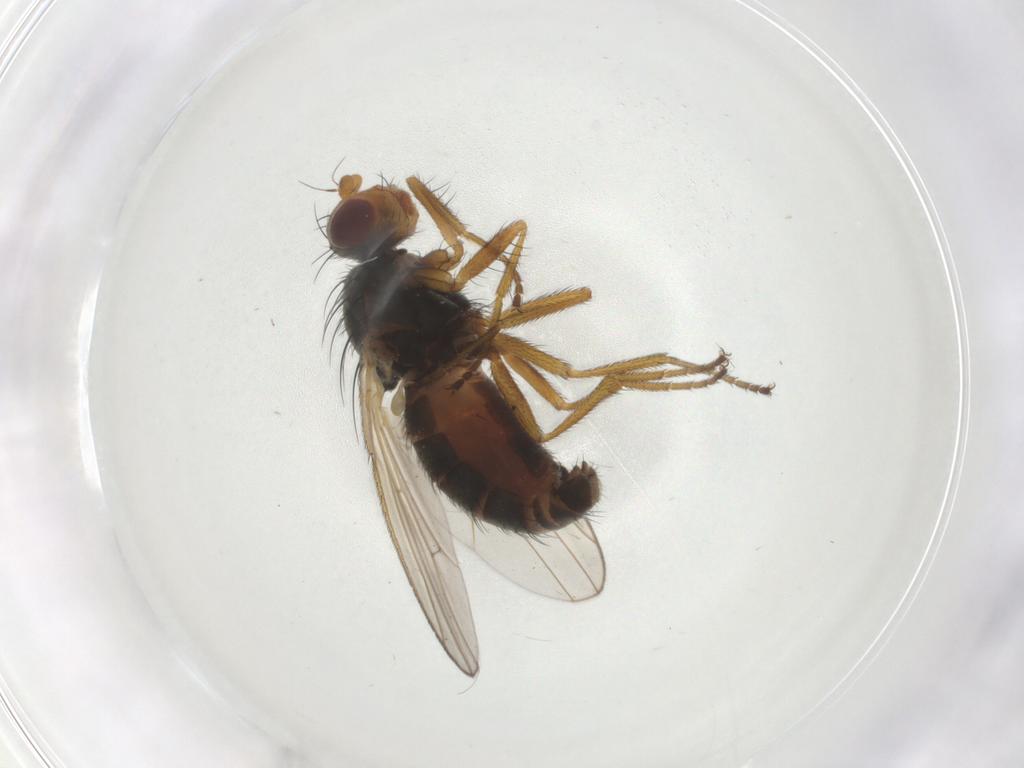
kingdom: Animalia
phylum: Arthropoda
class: Insecta
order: Diptera
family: Heleomyzidae
